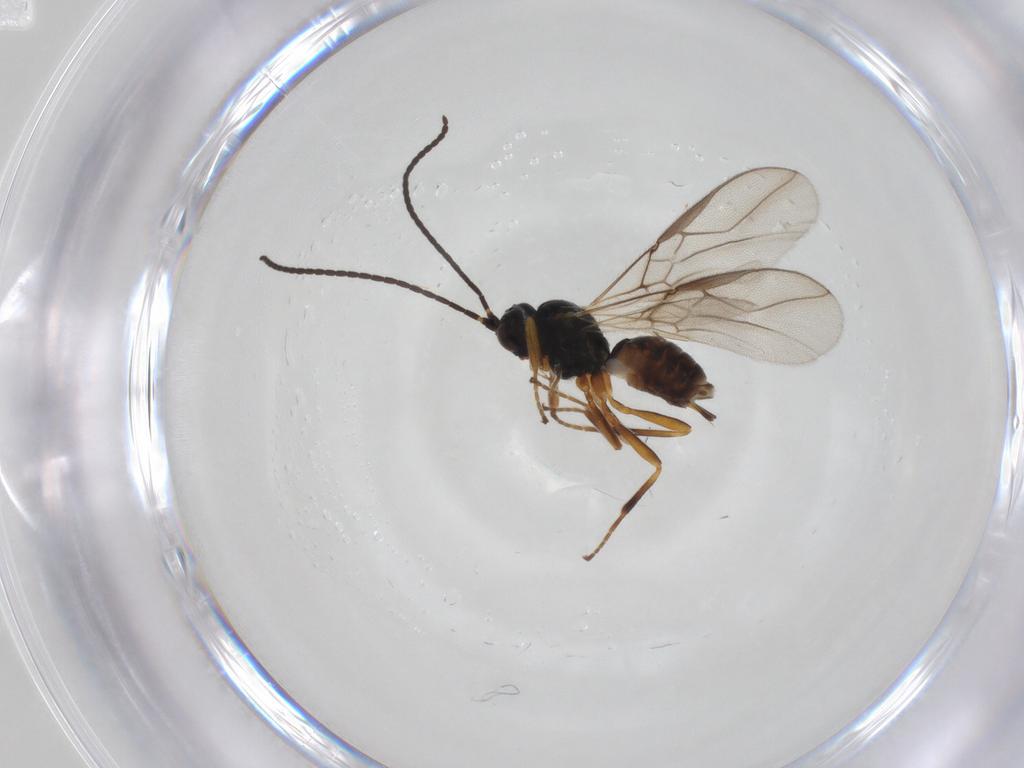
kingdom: Animalia
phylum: Arthropoda
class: Insecta
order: Hymenoptera
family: Braconidae
